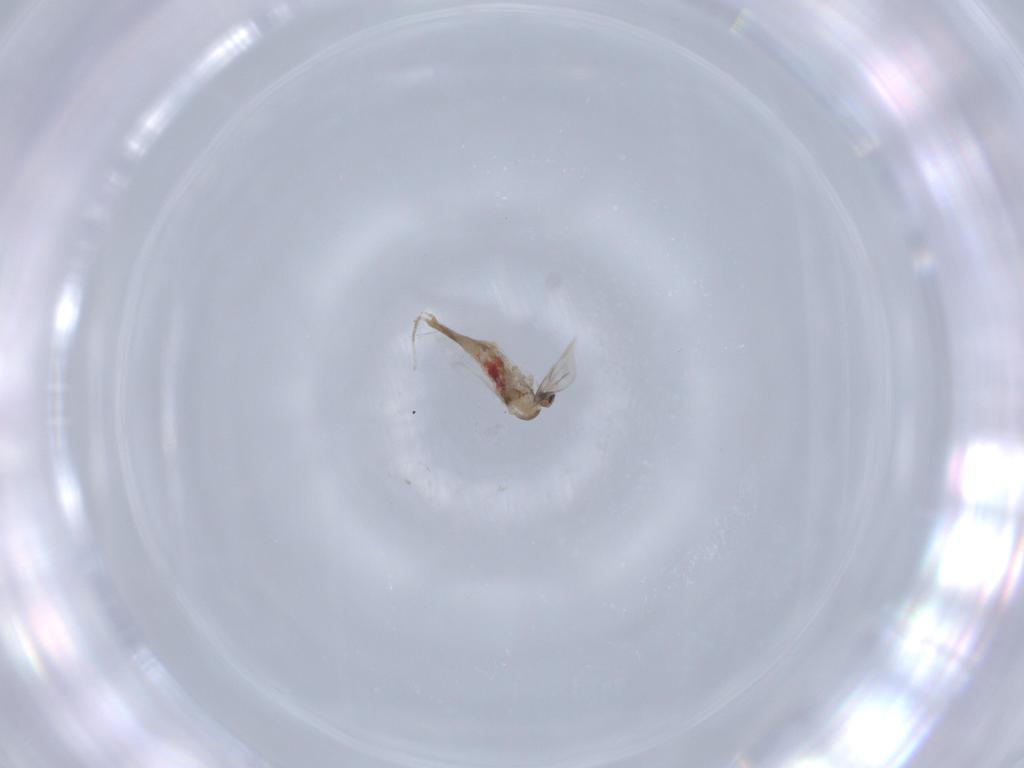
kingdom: Animalia
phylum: Arthropoda
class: Insecta
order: Diptera
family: Cecidomyiidae
